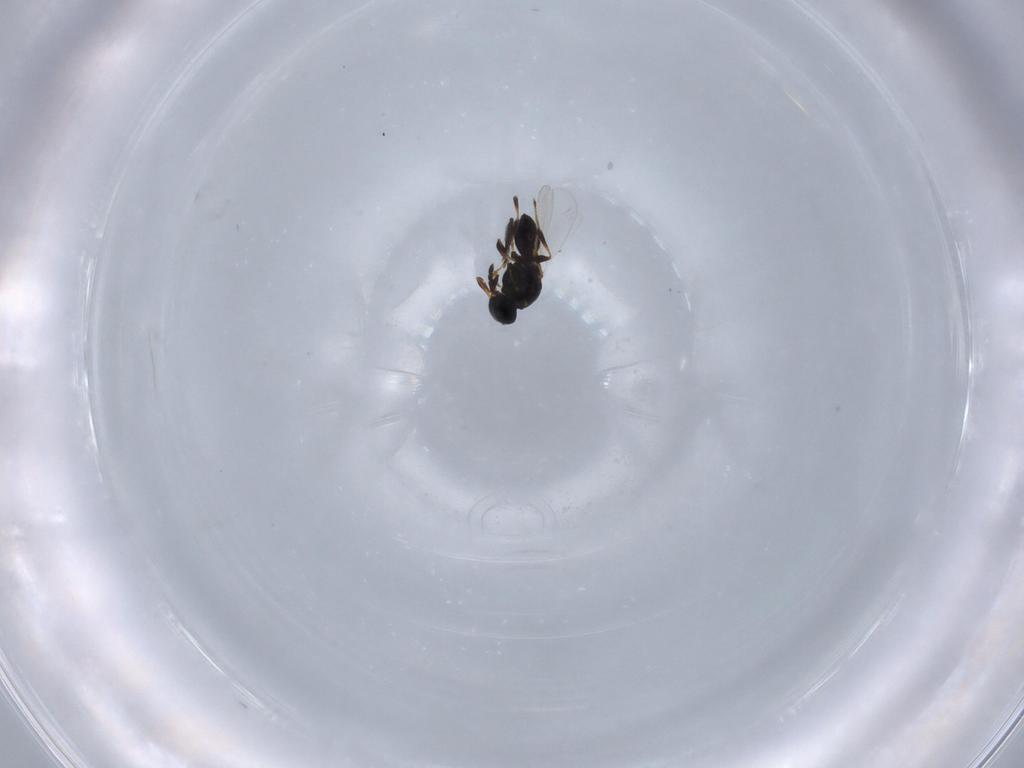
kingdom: Animalia
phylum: Arthropoda
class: Insecta
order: Hymenoptera
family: Platygastridae
